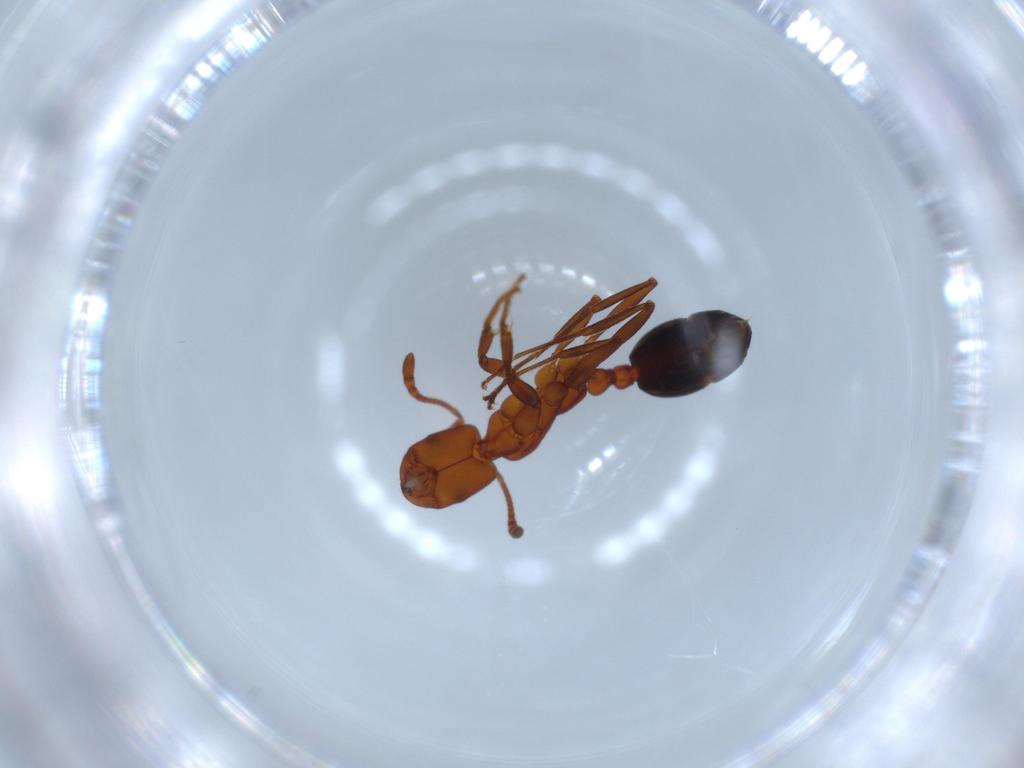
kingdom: Animalia
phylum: Arthropoda
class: Insecta
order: Hymenoptera
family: Formicidae
